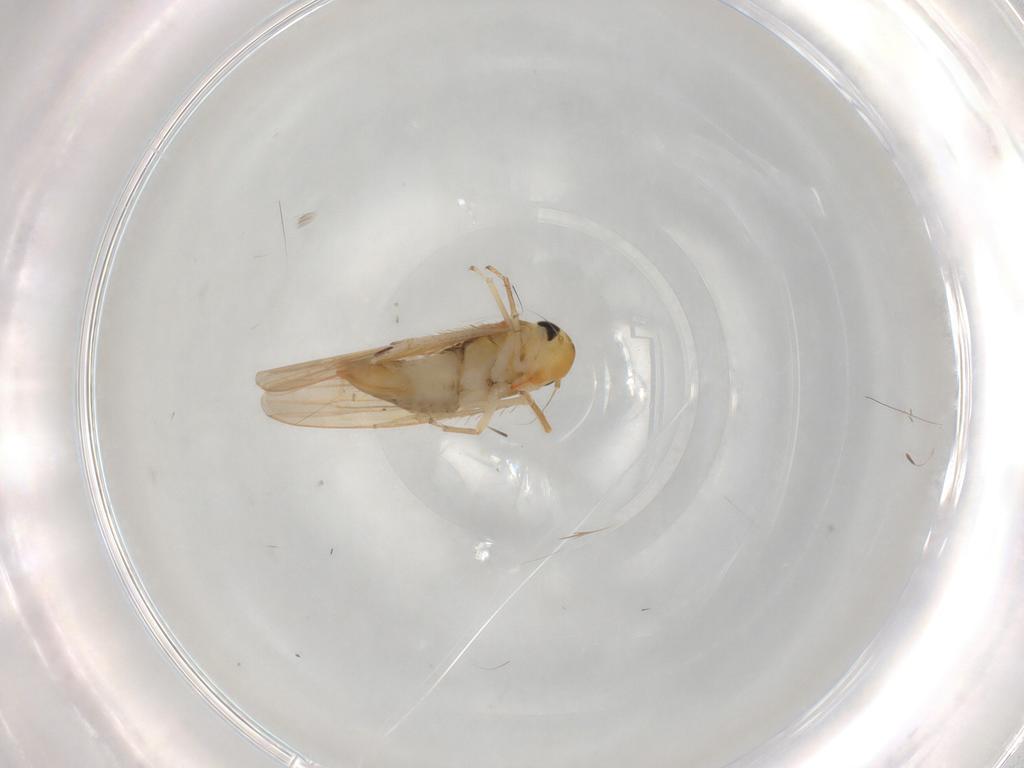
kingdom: Animalia
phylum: Arthropoda
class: Insecta
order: Hemiptera
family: Cicadellidae
